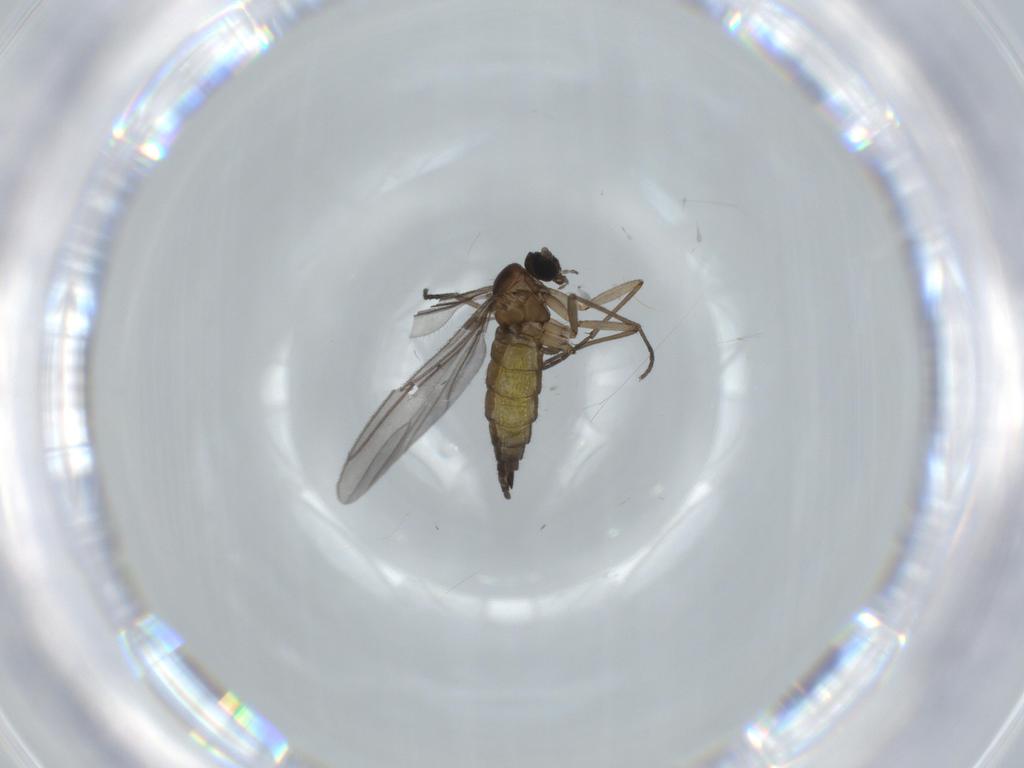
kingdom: Animalia
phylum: Arthropoda
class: Insecta
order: Diptera
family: Sciaridae
